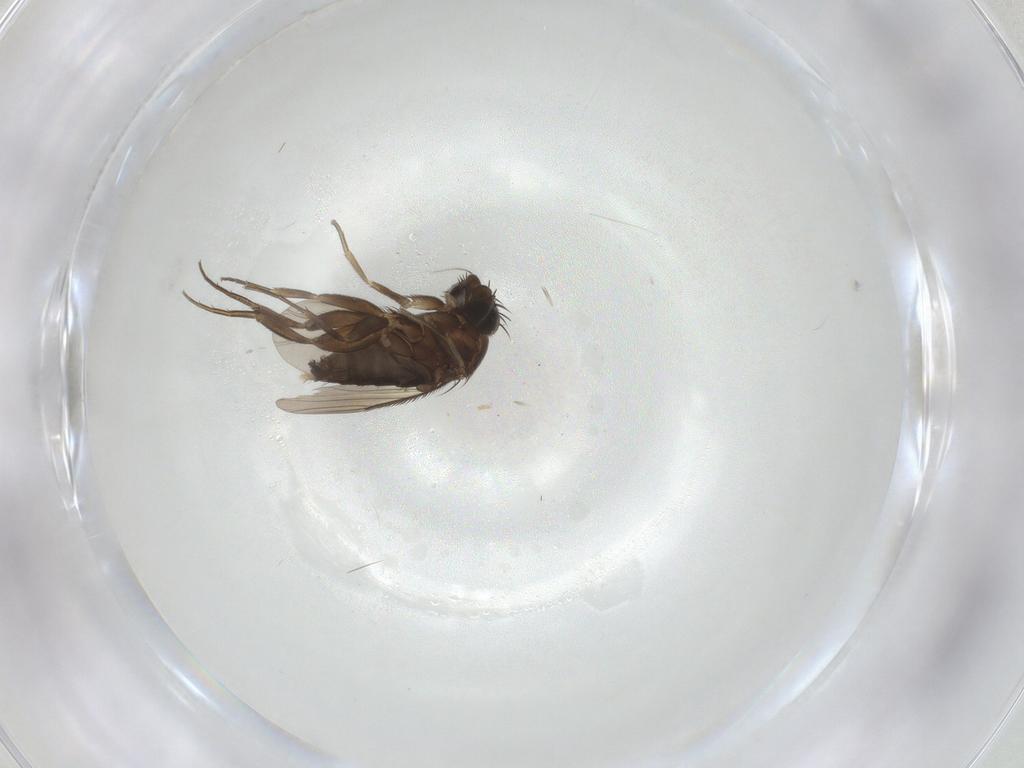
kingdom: Animalia
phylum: Arthropoda
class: Insecta
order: Diptera
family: Phoridae
